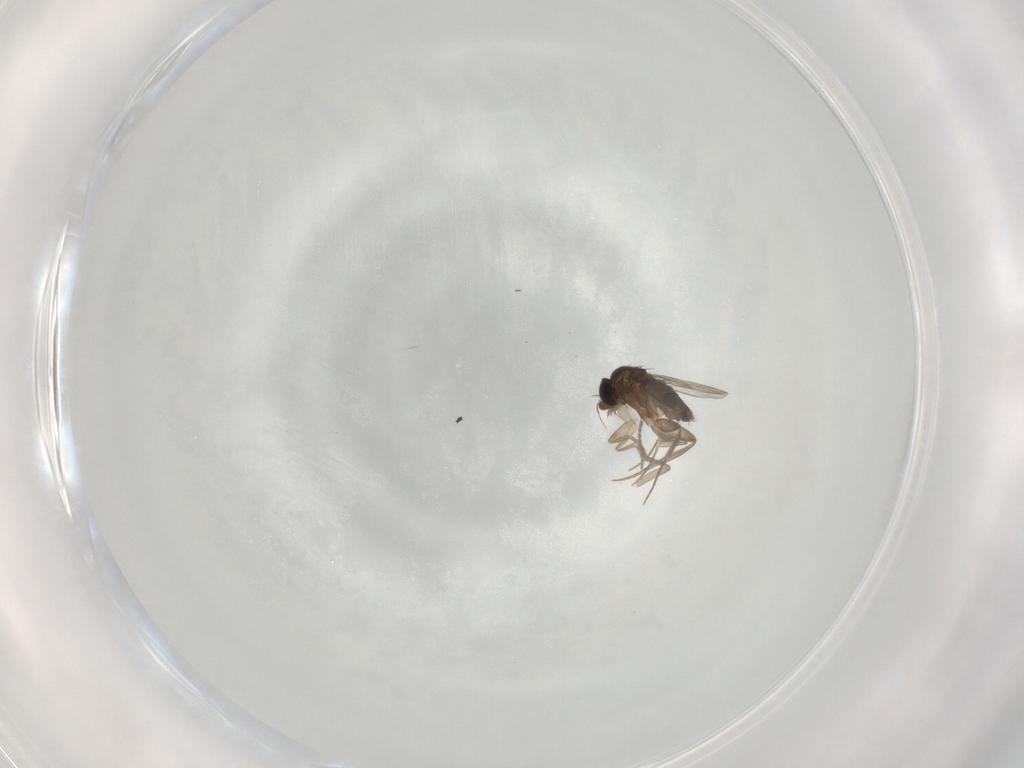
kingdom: Animalia
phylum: Arthropoda
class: Insecta
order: Diptera
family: Phoridae
